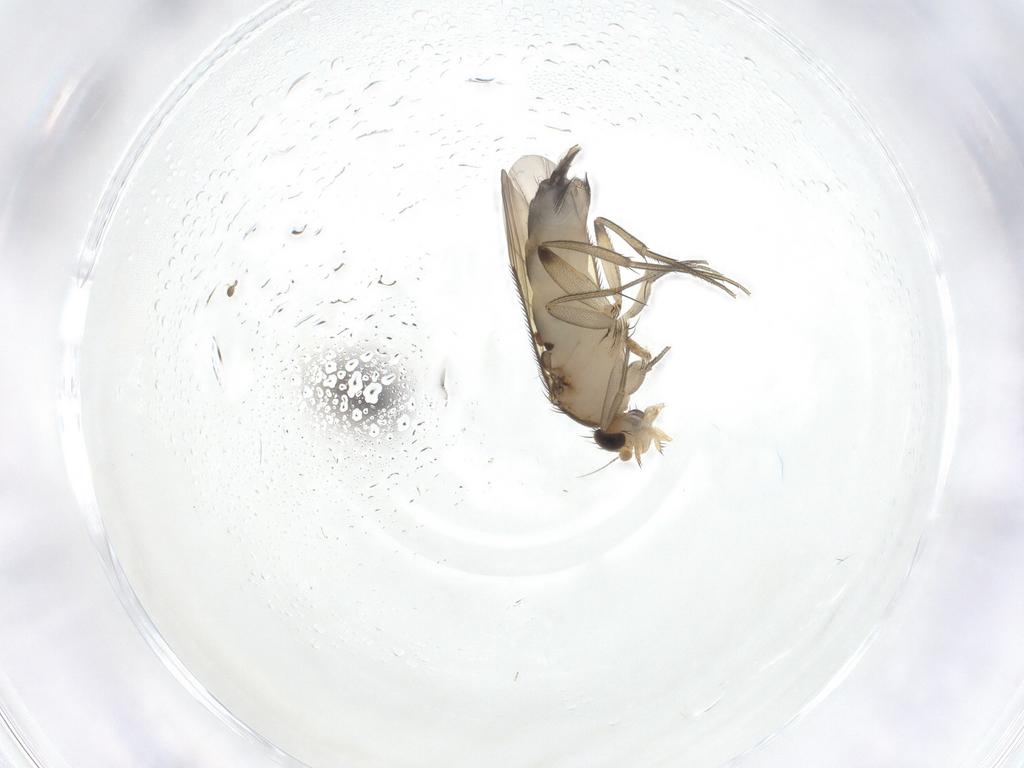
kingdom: Animalia
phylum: Arthropoda
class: Insecta
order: Diptera
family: Phoridae
